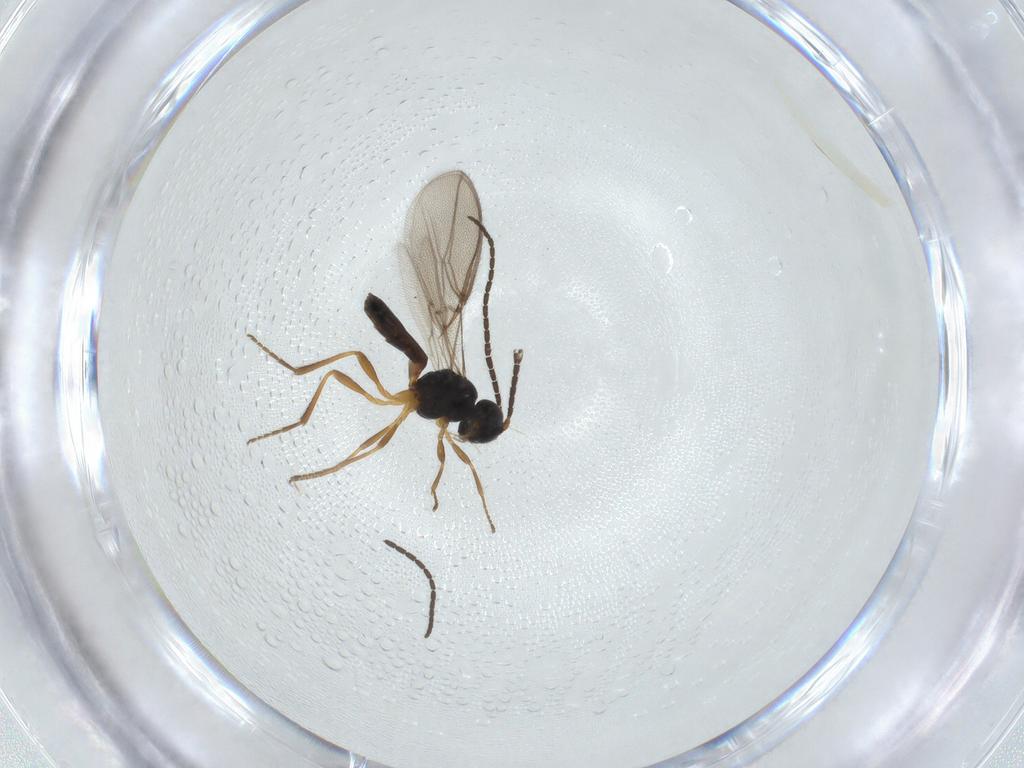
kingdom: Animalia
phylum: Arthropoda
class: Insecta
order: Hymenoptera
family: Braconidae
